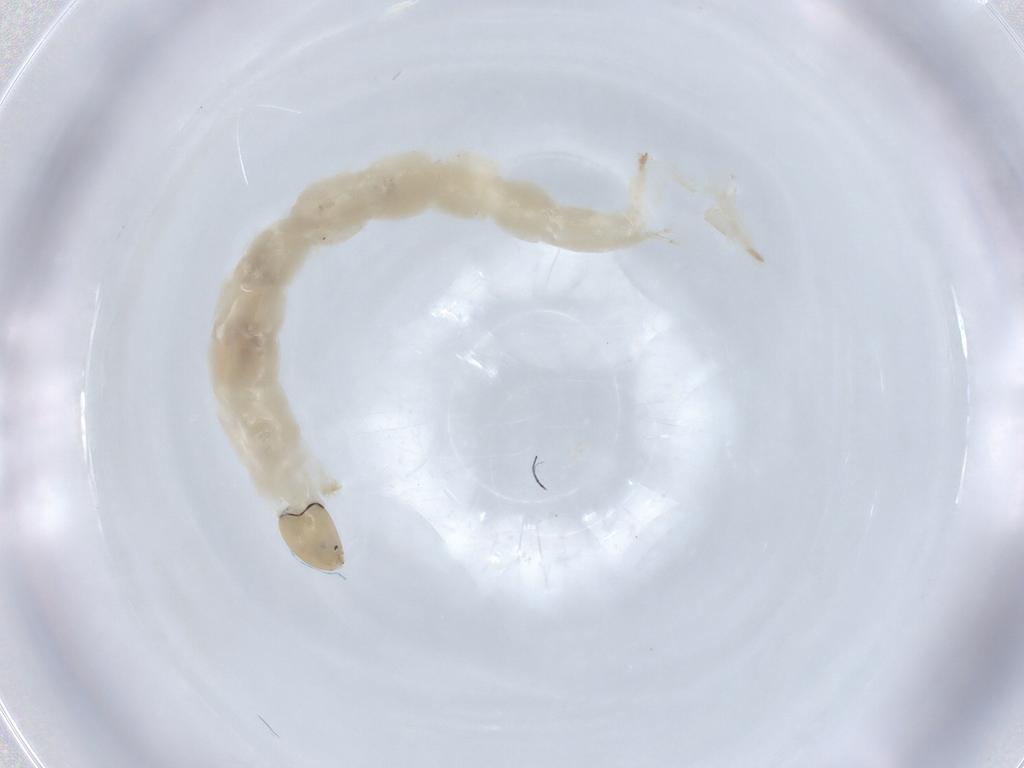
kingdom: Animalia
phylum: Arthropoda
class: Insecta
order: Diptera
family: Chironomidae
